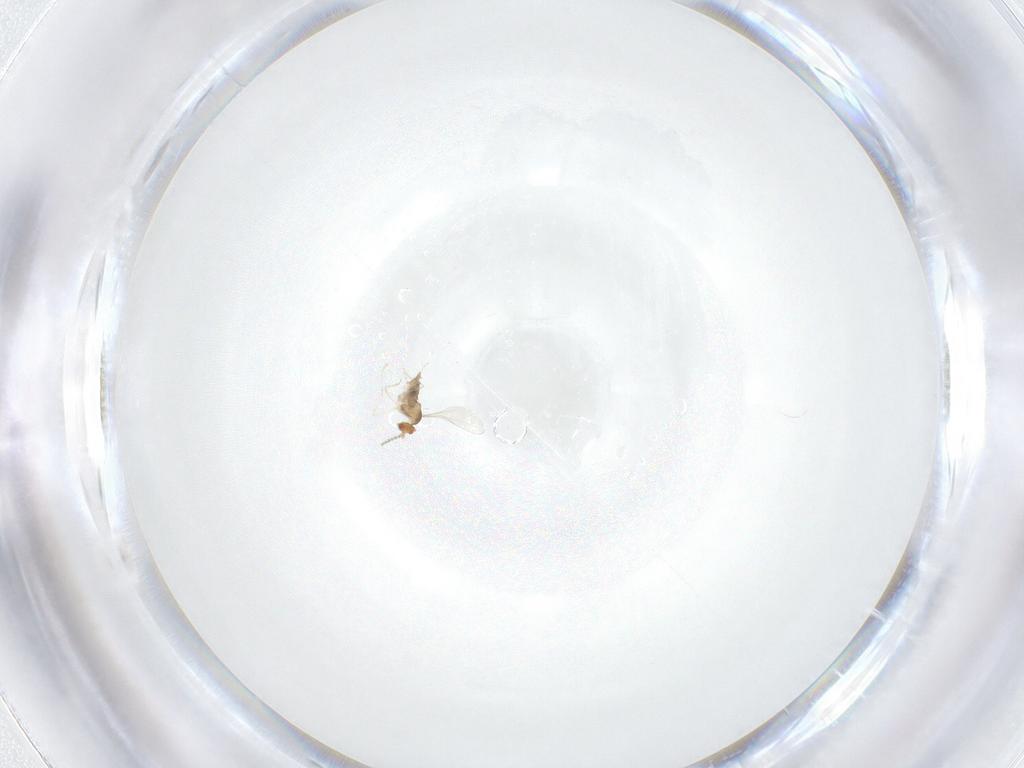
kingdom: Animalia
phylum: Arthropoda
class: Insecta
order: Diptera
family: Cecidomyiidae
